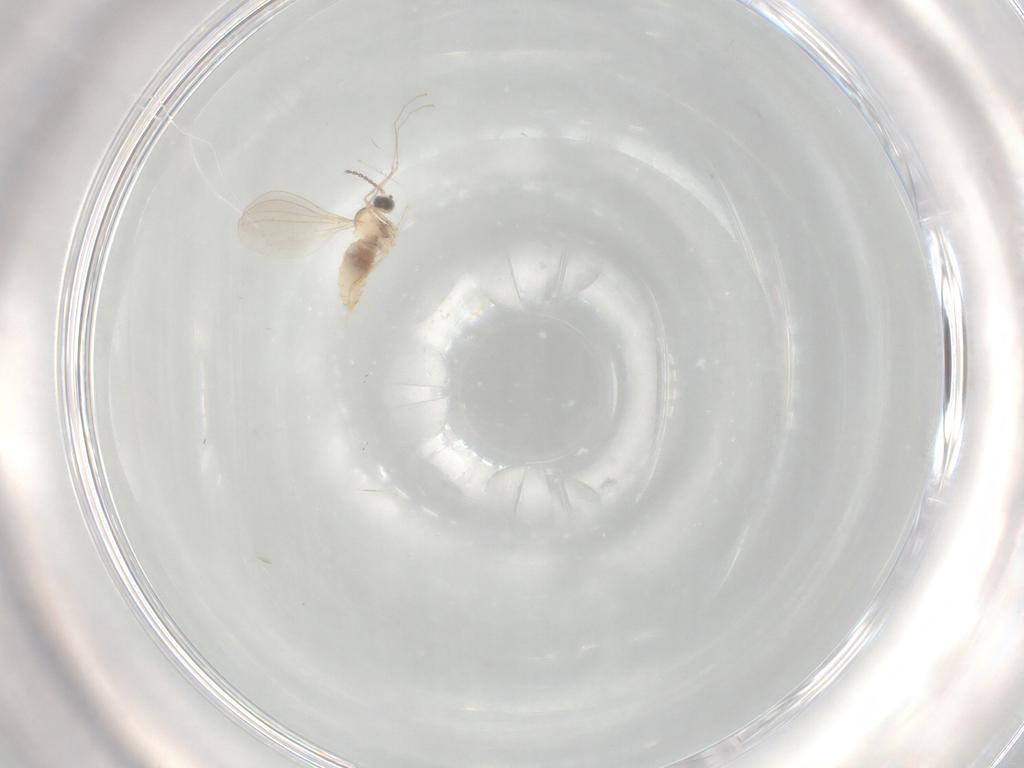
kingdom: Animalia
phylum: Arthropoda
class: Insecta
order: Diptera
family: Cecidomyiidae
